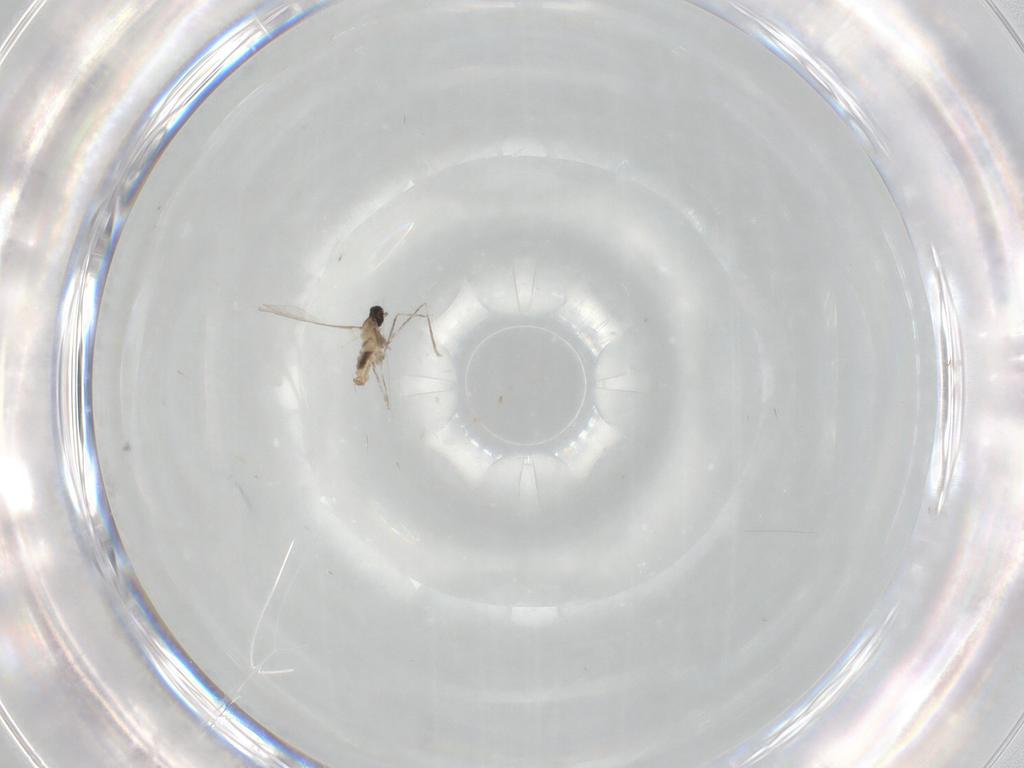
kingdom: Animalia
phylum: Arthropoda
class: Insecta
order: Diptera
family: Cecidomyiidae
